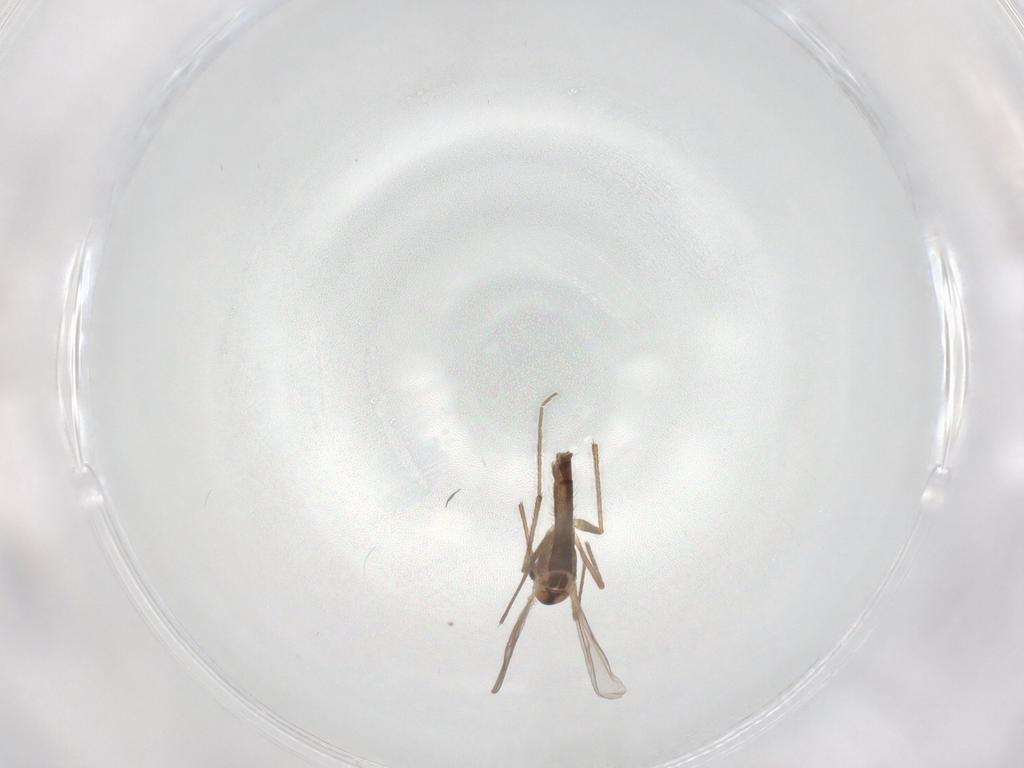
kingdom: Animalia
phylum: Arthropoda
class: Insecta
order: Diptera
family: Chironomidae
